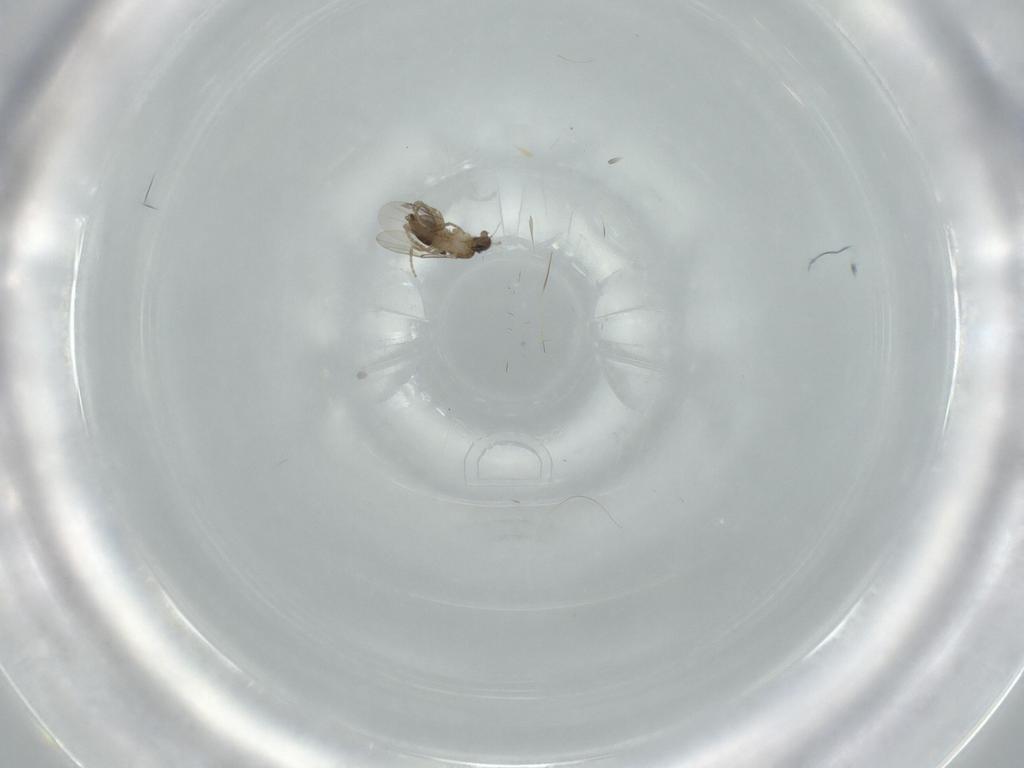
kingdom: Animalia
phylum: Arthropoda
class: Insecta
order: Diptera
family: Phoridae
